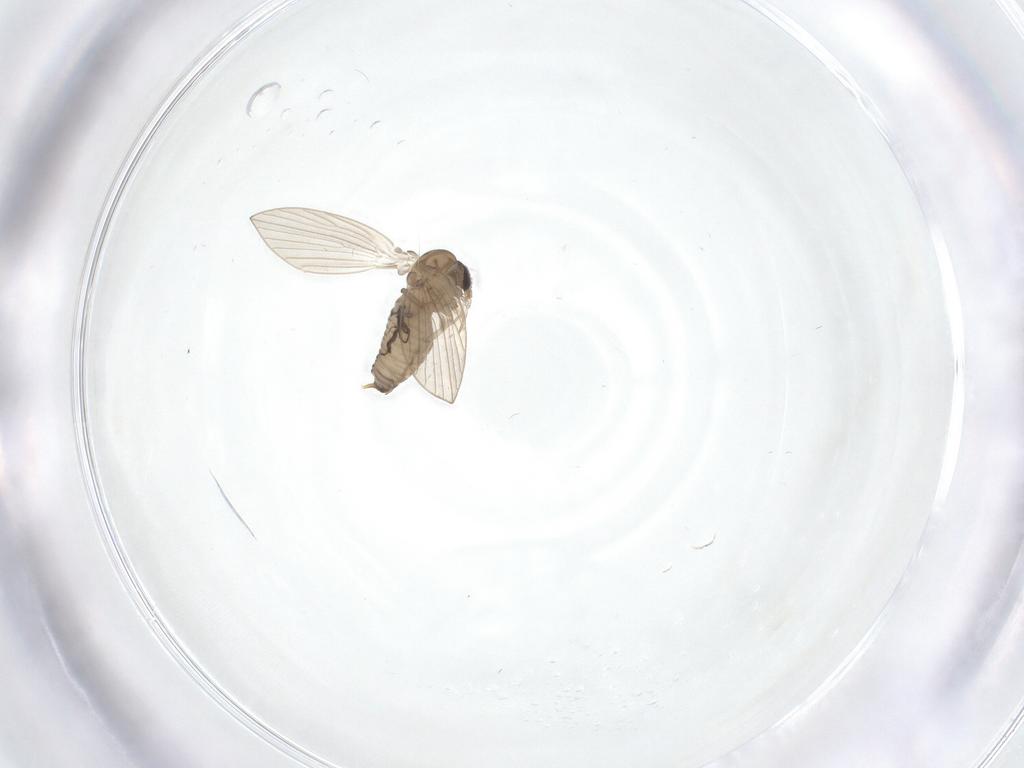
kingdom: Animalia
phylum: Arthropoda
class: Insecta
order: Diptera
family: Psychodidae
